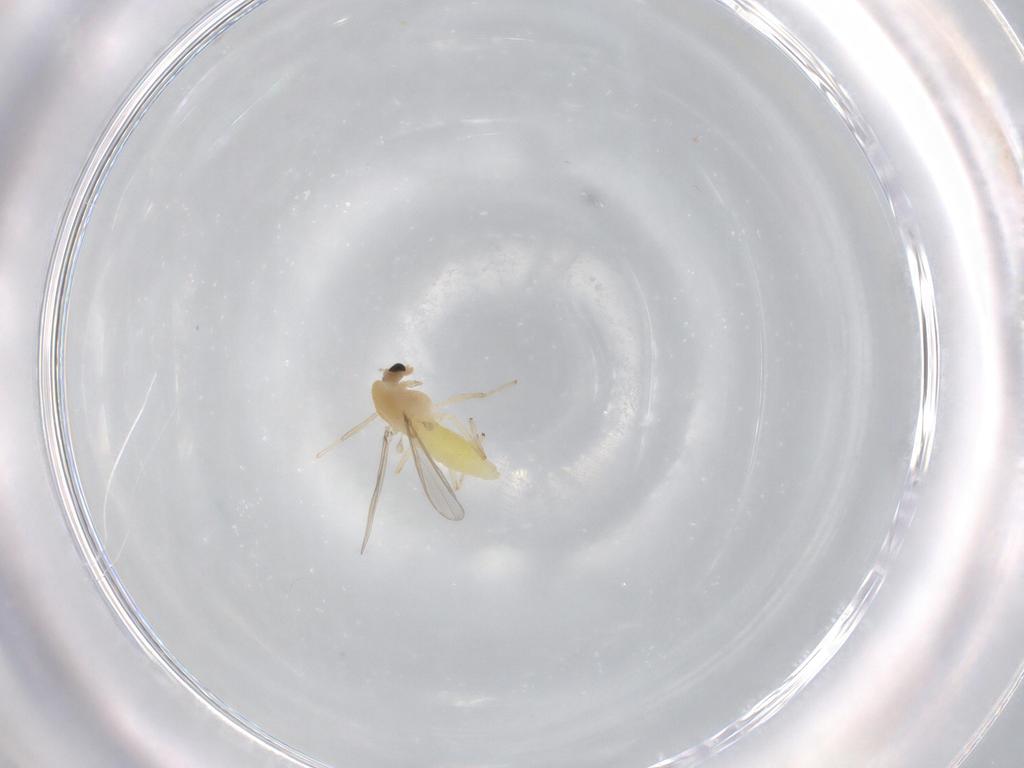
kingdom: Animalia
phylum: Arthropoda
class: Insecta
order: Diptera
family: Chironomidae
